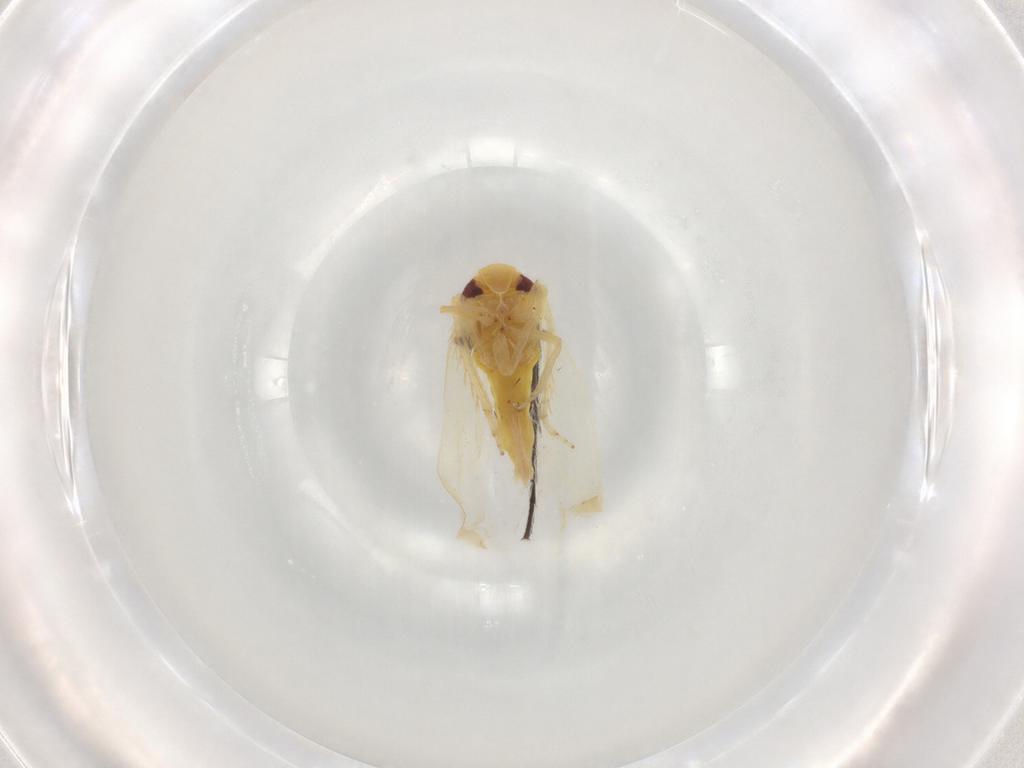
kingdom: Animalia
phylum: Arthropoda
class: Insecta
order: Hemiptera
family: Cicadellidae
